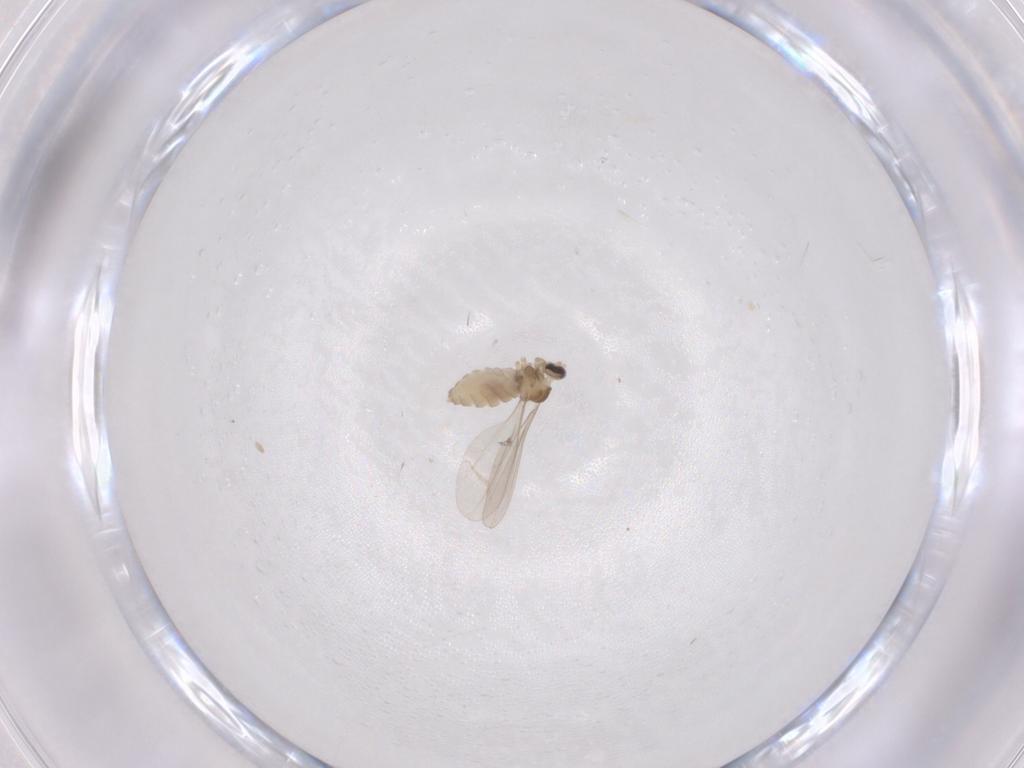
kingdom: Animalia
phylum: Arthropoda
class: Insecta
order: Diptera
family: Cecidomyiidae
